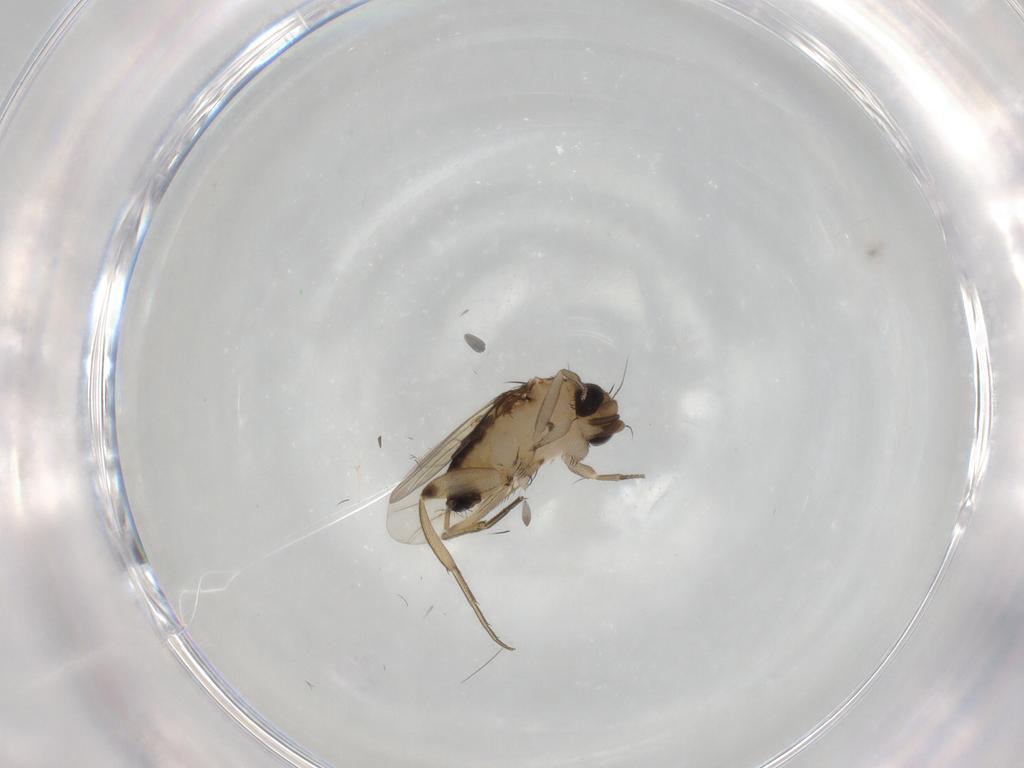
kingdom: Animalia
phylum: Arthropoda
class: Insecta
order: Diptera
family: Phoridae
